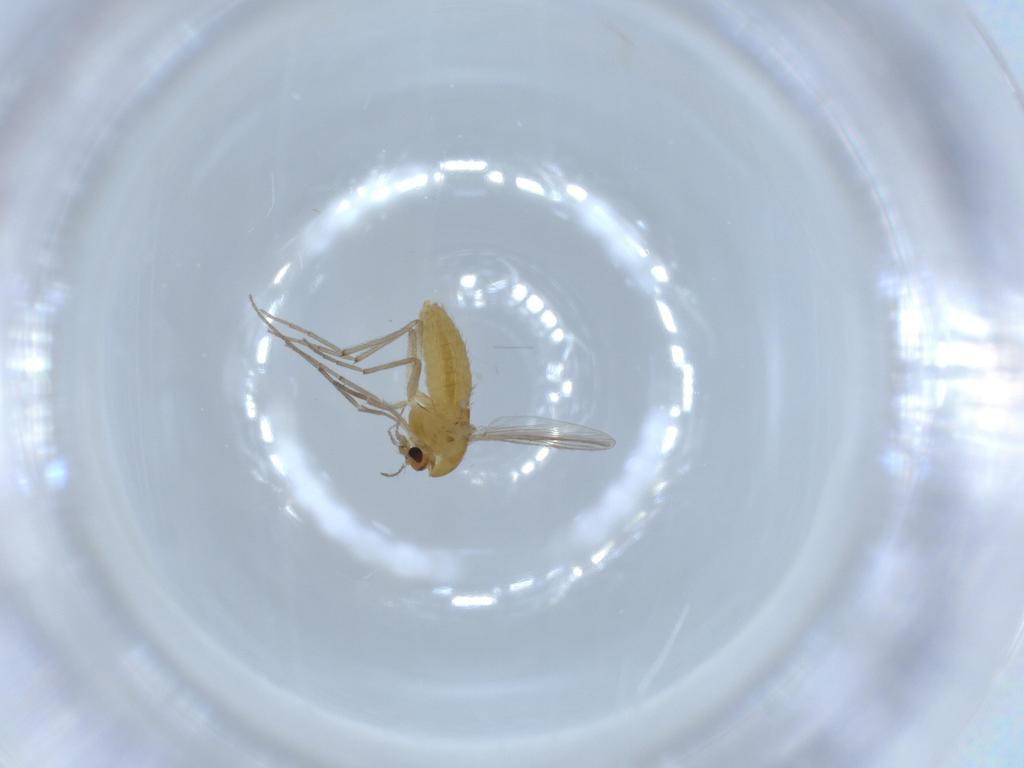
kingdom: Animalia
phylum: Arthropoda
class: Insecta
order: Diptera
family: Chironomidae
